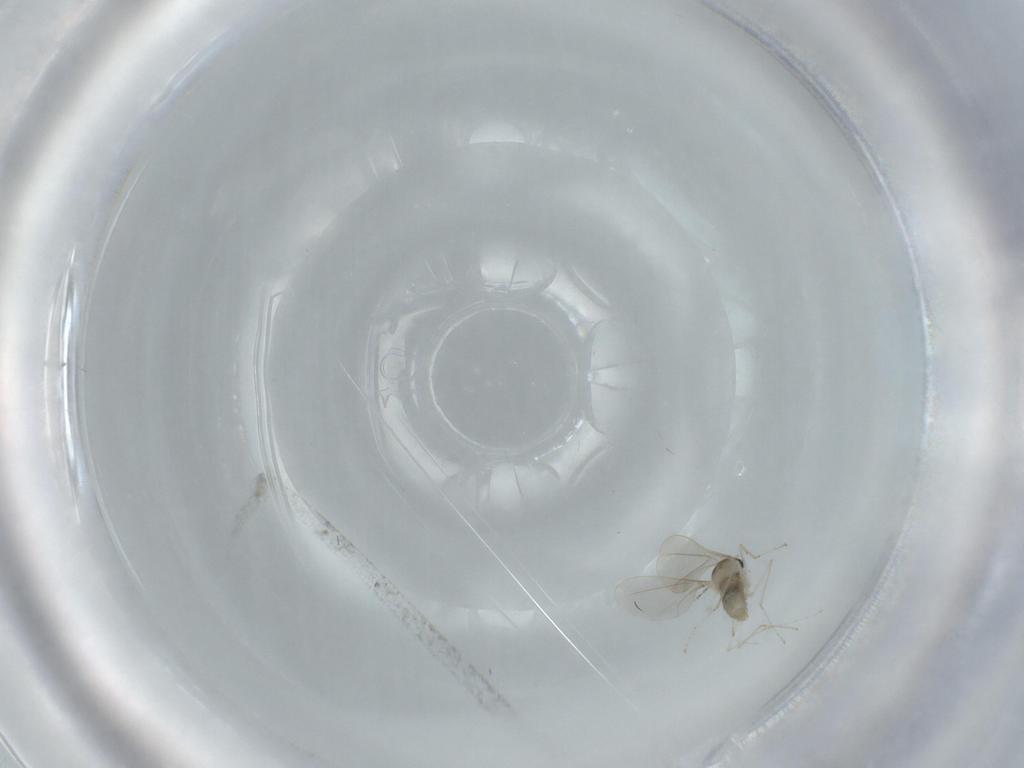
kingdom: Animalia
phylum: Arthropoda
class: Insecta
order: Diptera
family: Cecidomyiidae
